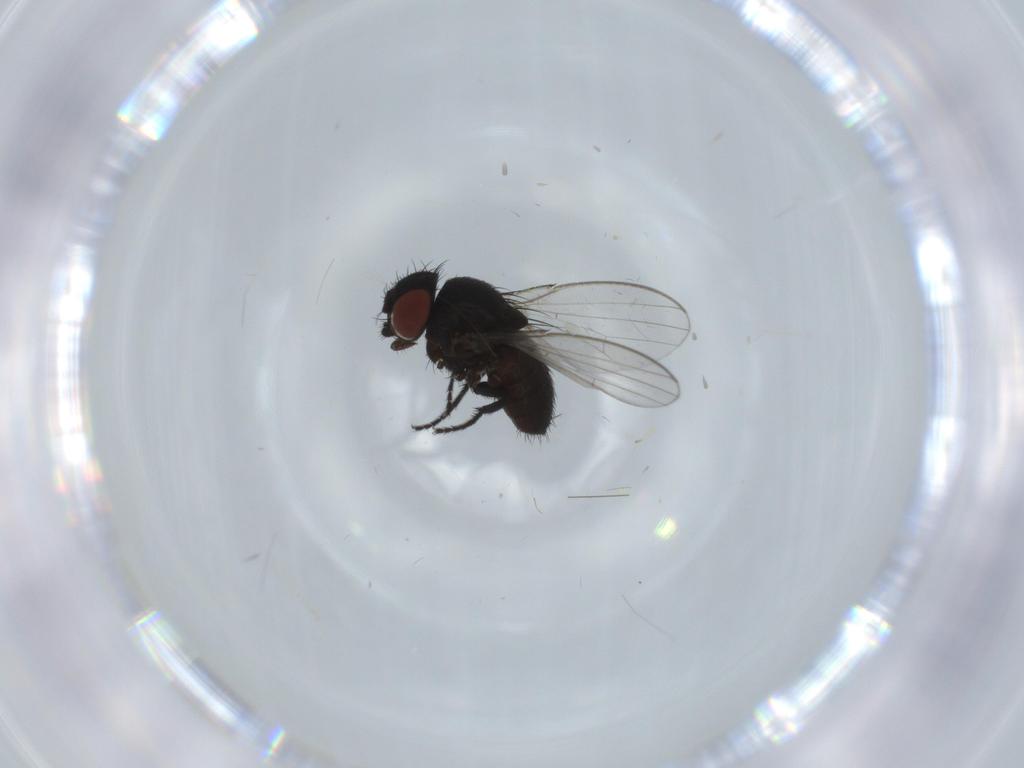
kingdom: Animalia
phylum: Arthropoda
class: Insecta
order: Diptera
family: Milichiidae
